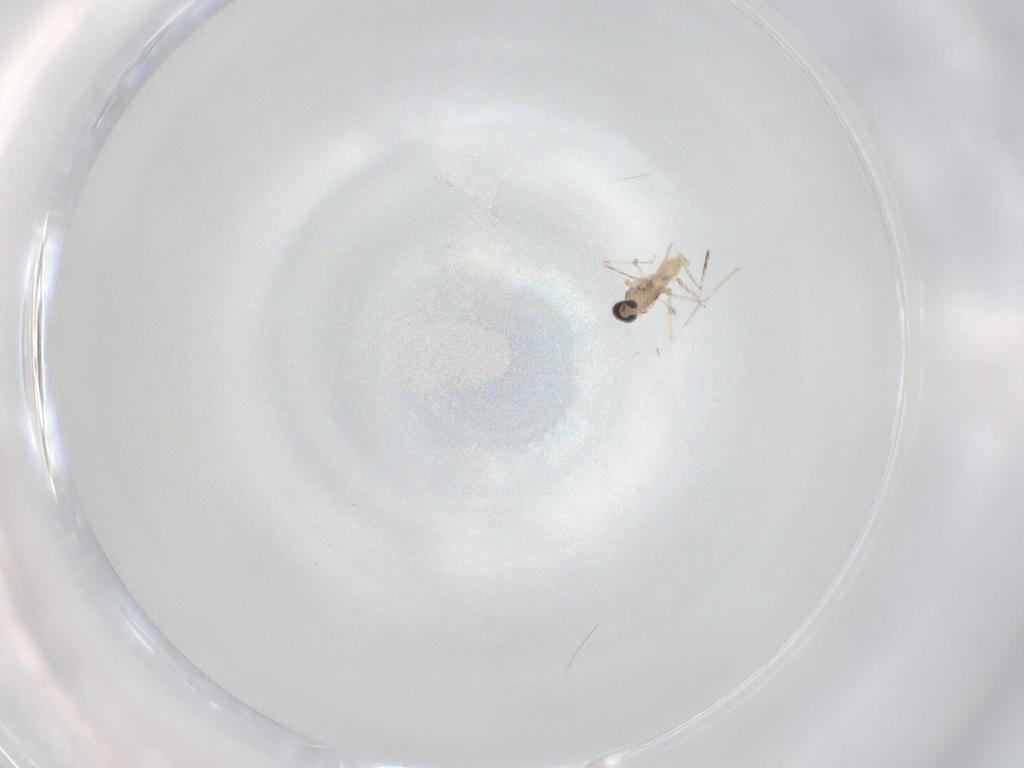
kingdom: Animalia
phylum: Arthropoda
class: Insecta
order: Diptera
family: Cecidomyiidae
